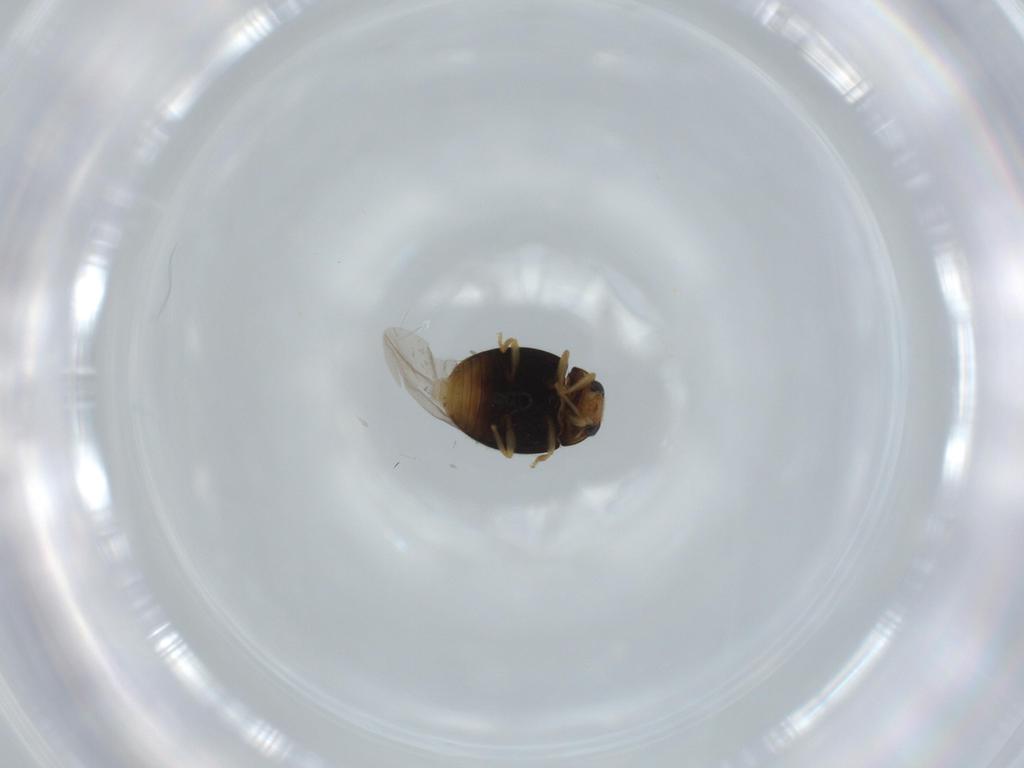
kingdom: Animalia
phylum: Arthropoda
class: Insecta
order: Coleoptera
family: Coccinellidae
